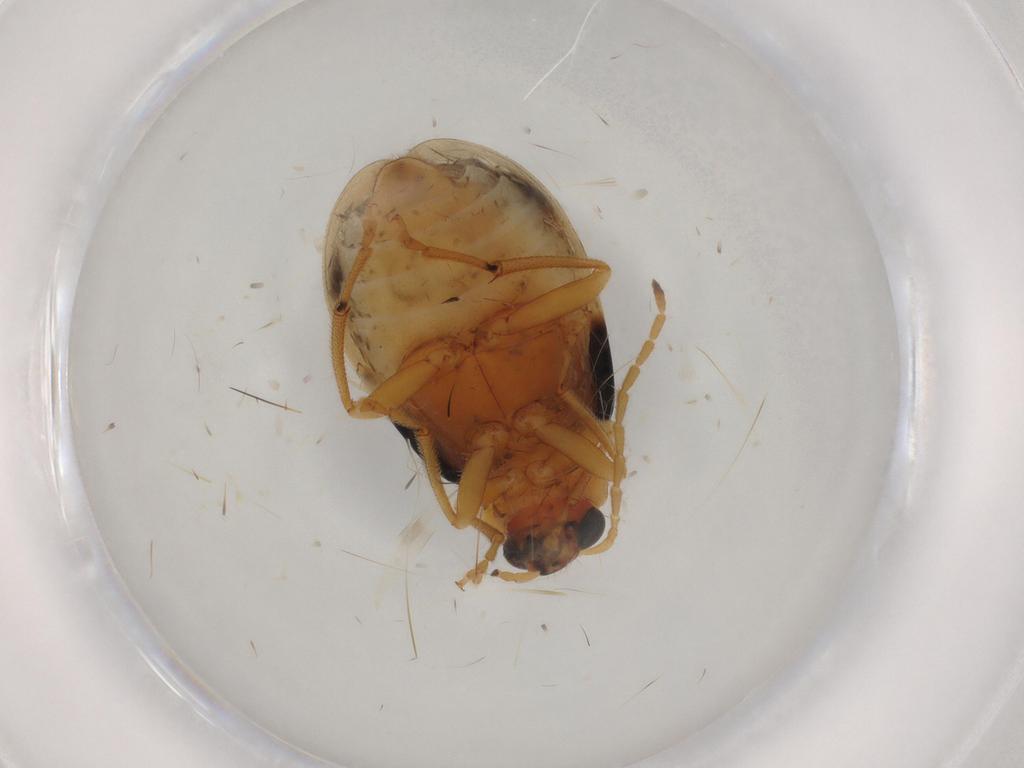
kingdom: Animalia
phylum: Arthropoda
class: Insecta
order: Coleoptera
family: Chrysomelidae
